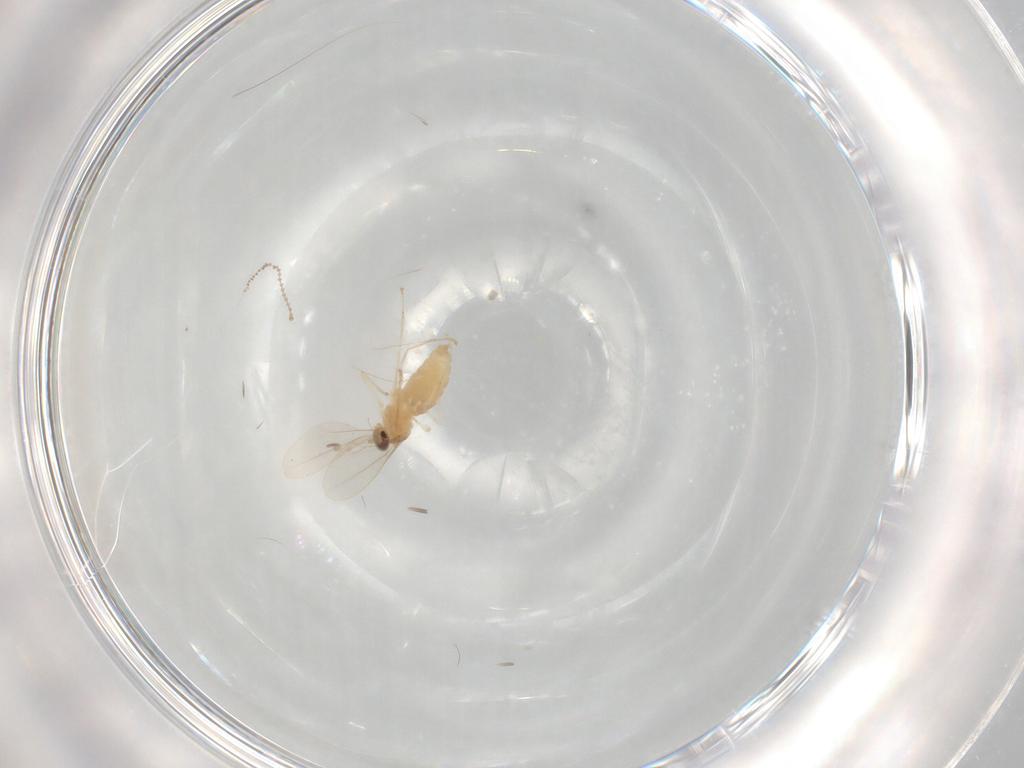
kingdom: Animalia
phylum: Arthropoda
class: Insecta
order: Diptera
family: Cecidomyiidae
